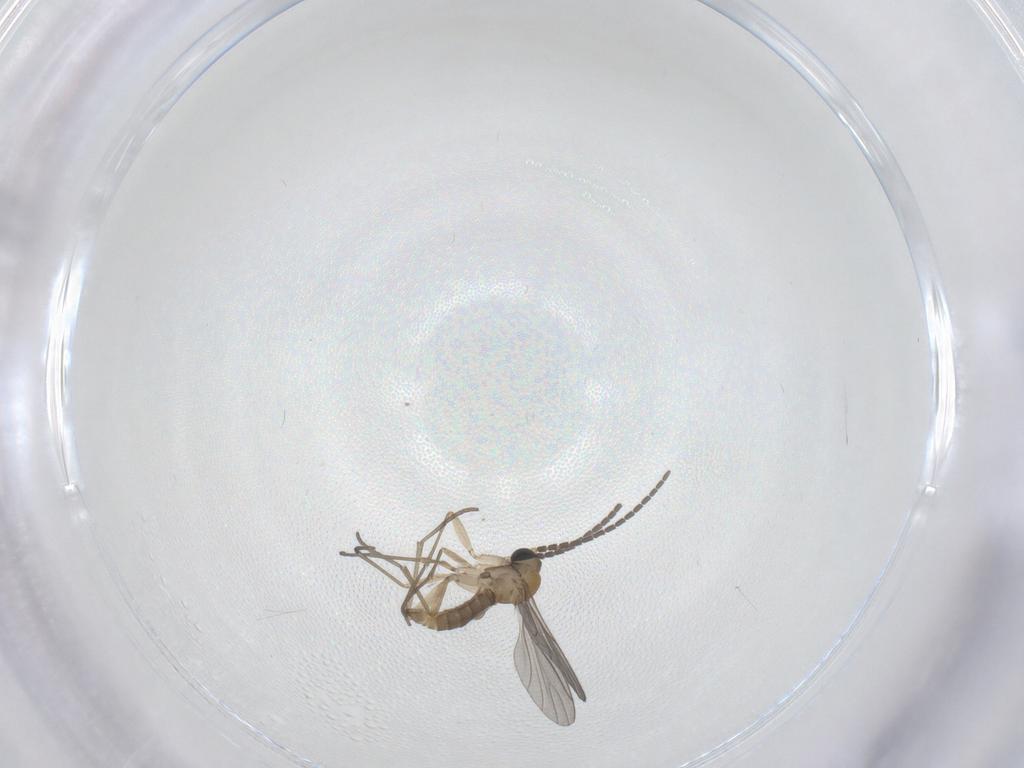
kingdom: Animalia
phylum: Arthropoda
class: Insecta
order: Diptera
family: Sciaridae
